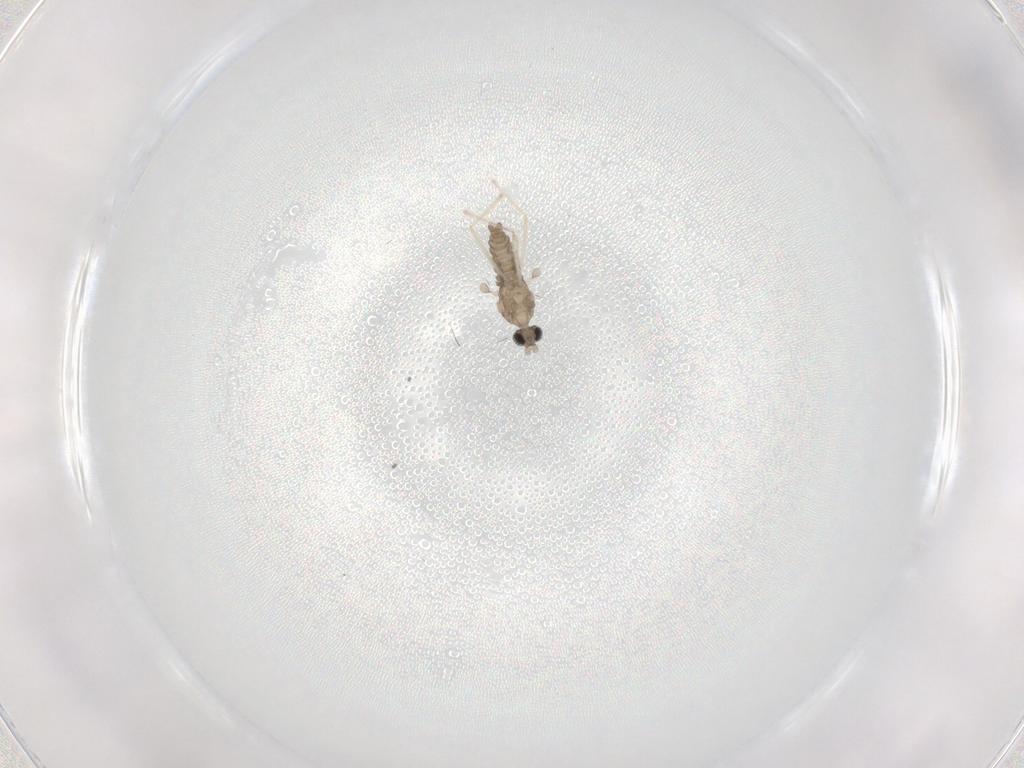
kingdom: Animalia
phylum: Arthropoda
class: Insecta
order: Diptera
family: Cecidomyiidae
